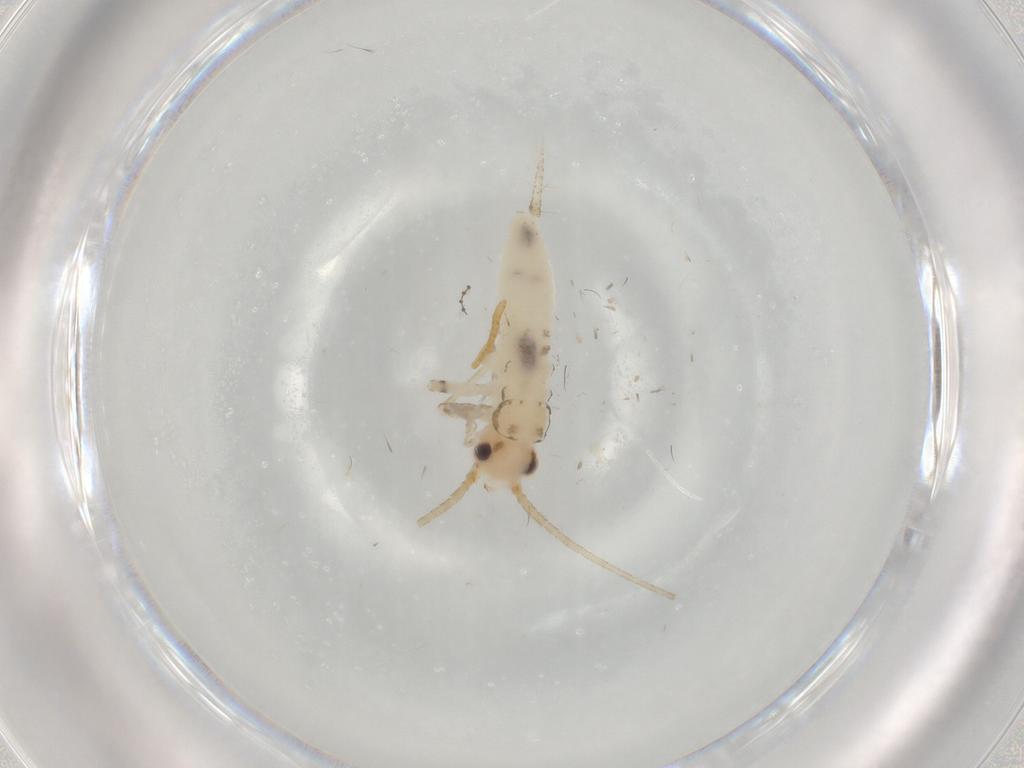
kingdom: Animalia
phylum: Arthropoda
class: Insecta
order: Orthoptera
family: Trigonidiidae
